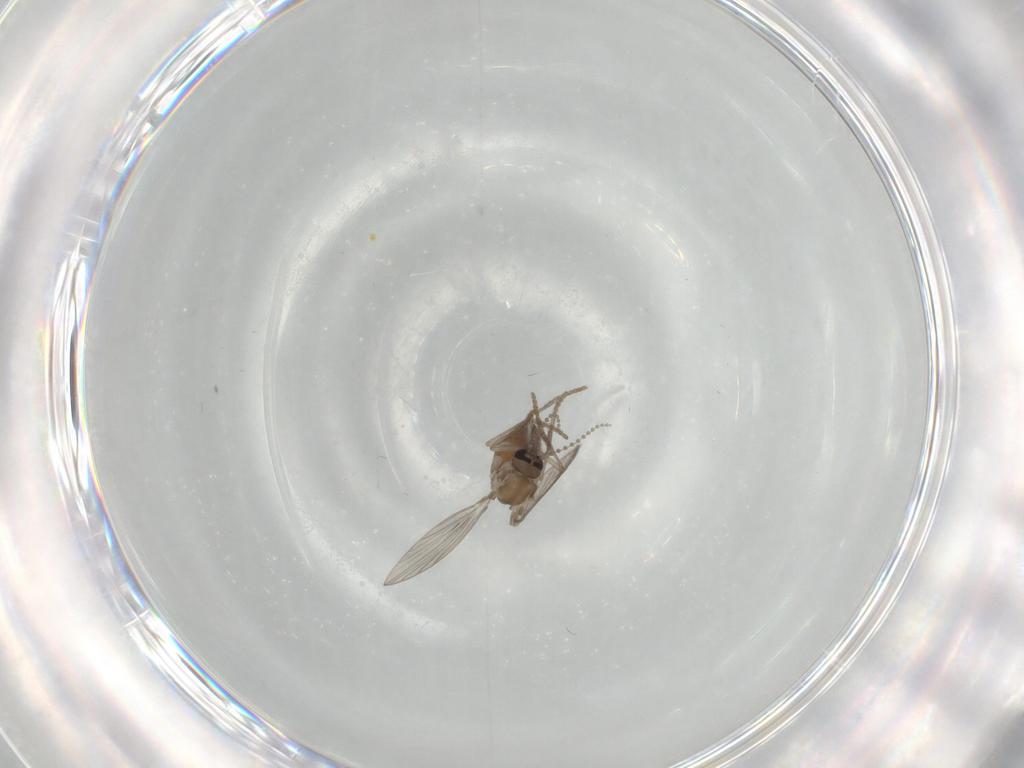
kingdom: Animalia
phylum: Arthropoda
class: Insecta
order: Diptera
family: Psychodidae
